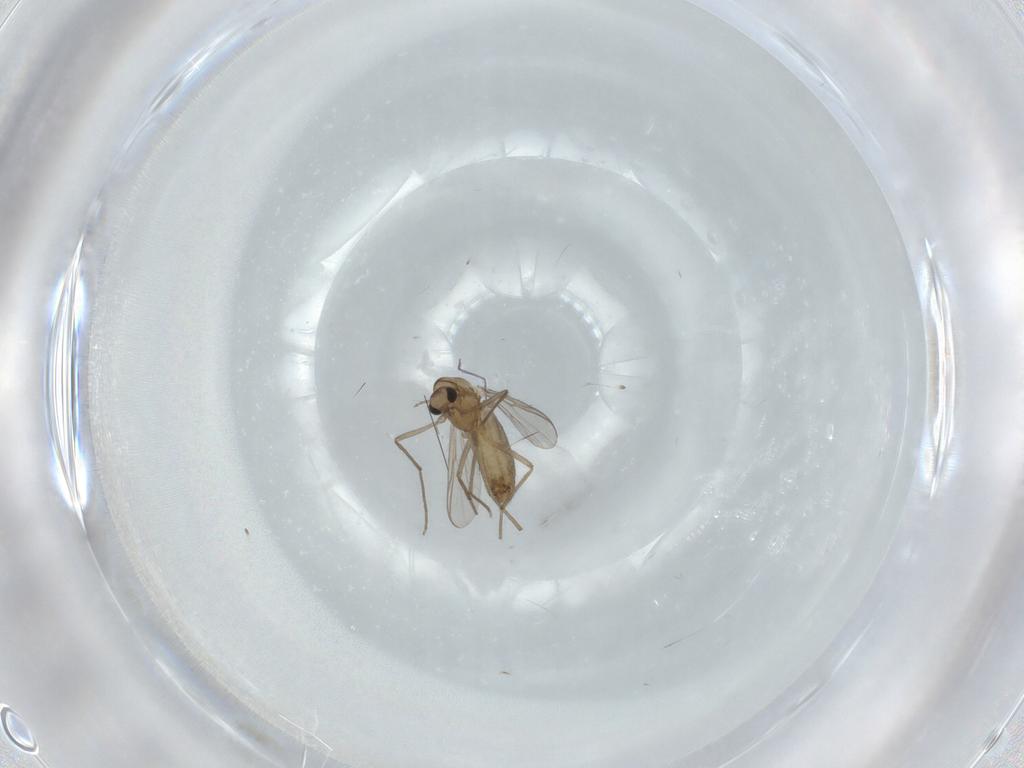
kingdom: Animalia
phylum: Arthropoda
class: Insecta
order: Diptera
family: Chironomidae
